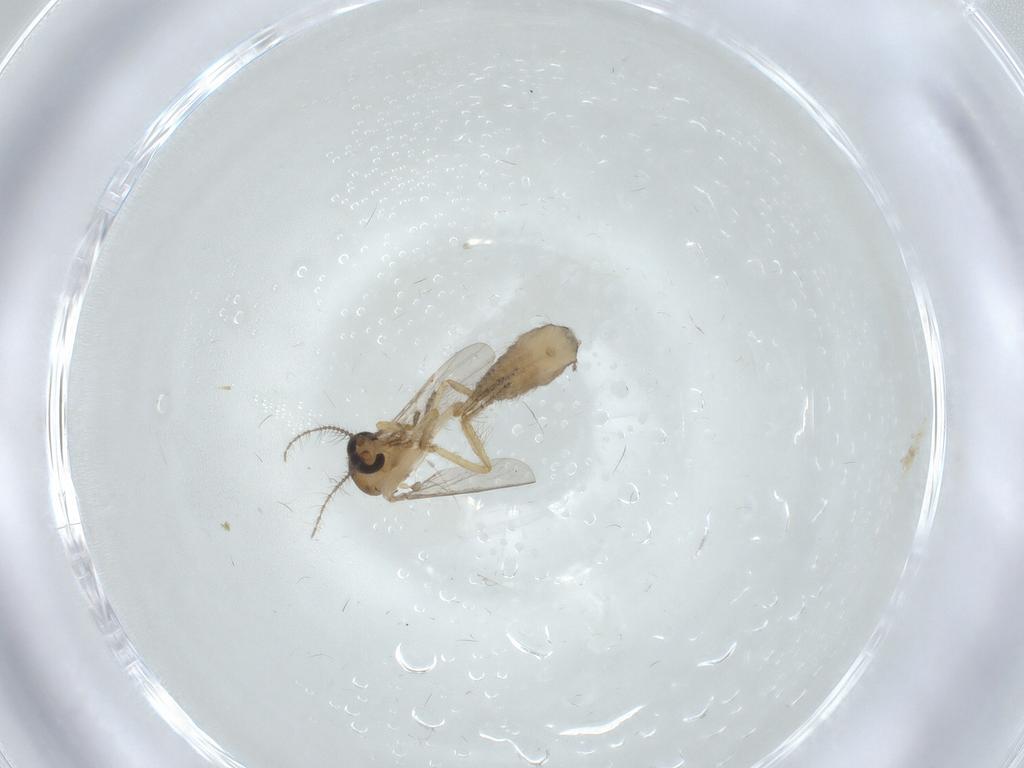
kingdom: Animalia
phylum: Arthropoda
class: Insecta
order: Diptera
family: Ceratopogonidae
